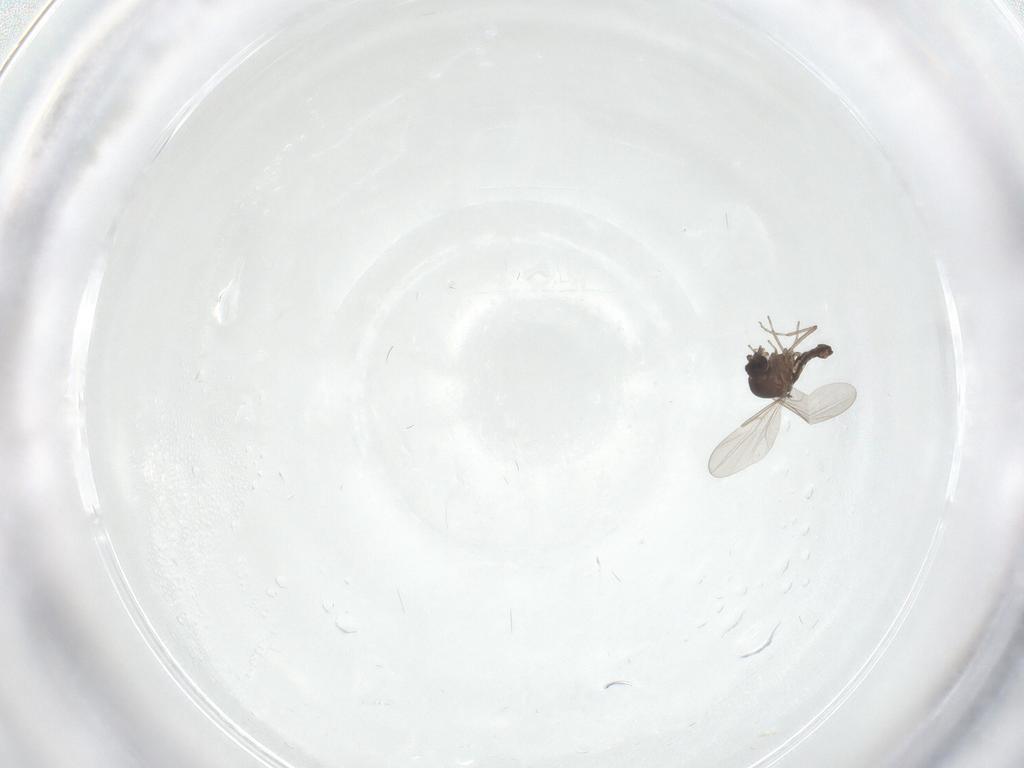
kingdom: Animalia
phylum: Arthropoda
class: Insecta
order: Diptera
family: Ceratopogonidae
